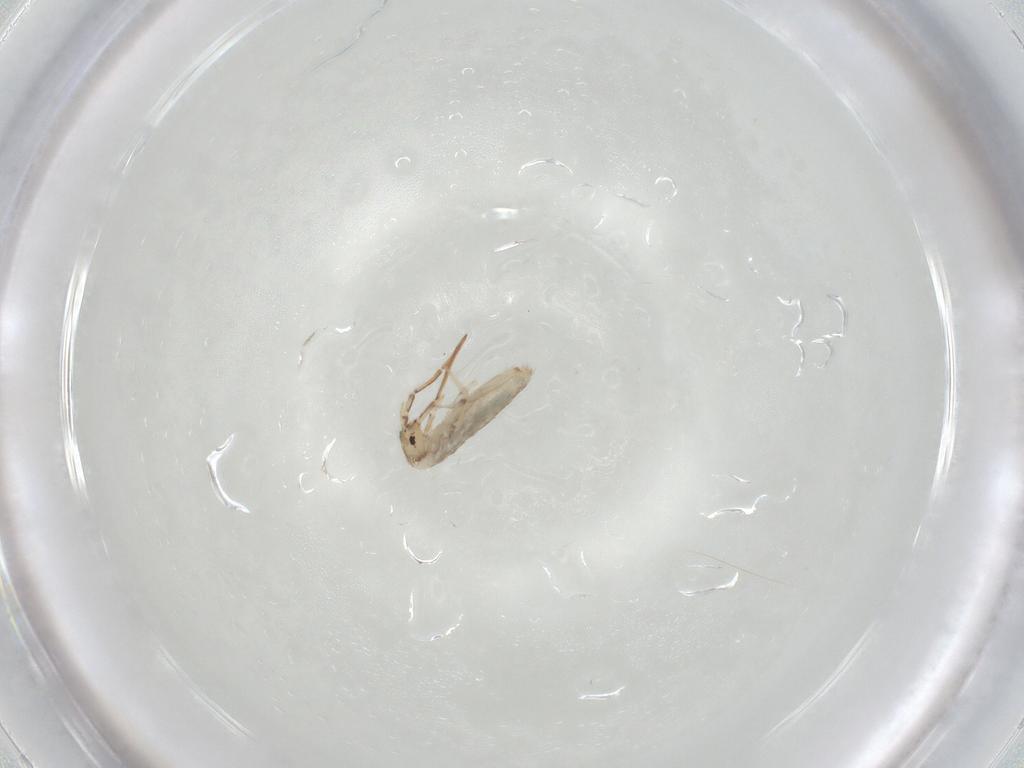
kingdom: Animalia
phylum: Arthropoda
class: Collembola
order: Entomobryomorpha
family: Entomobryidae
